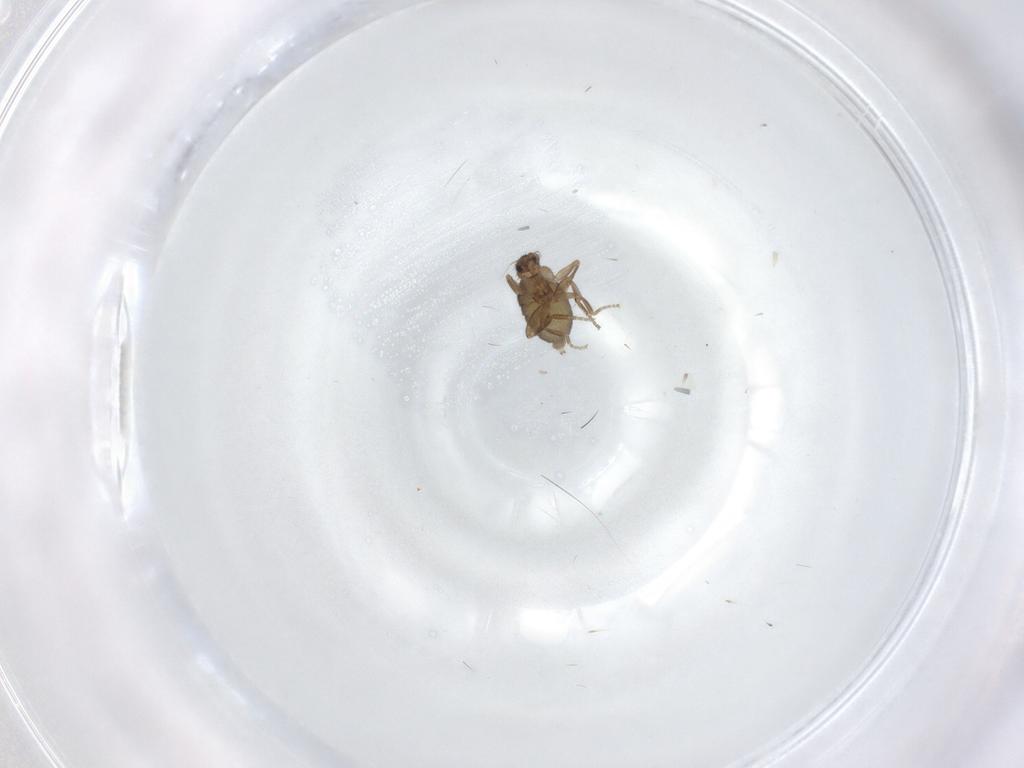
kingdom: Animalia
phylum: Arthropoda
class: Insecta
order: Diptera
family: Phoridae
